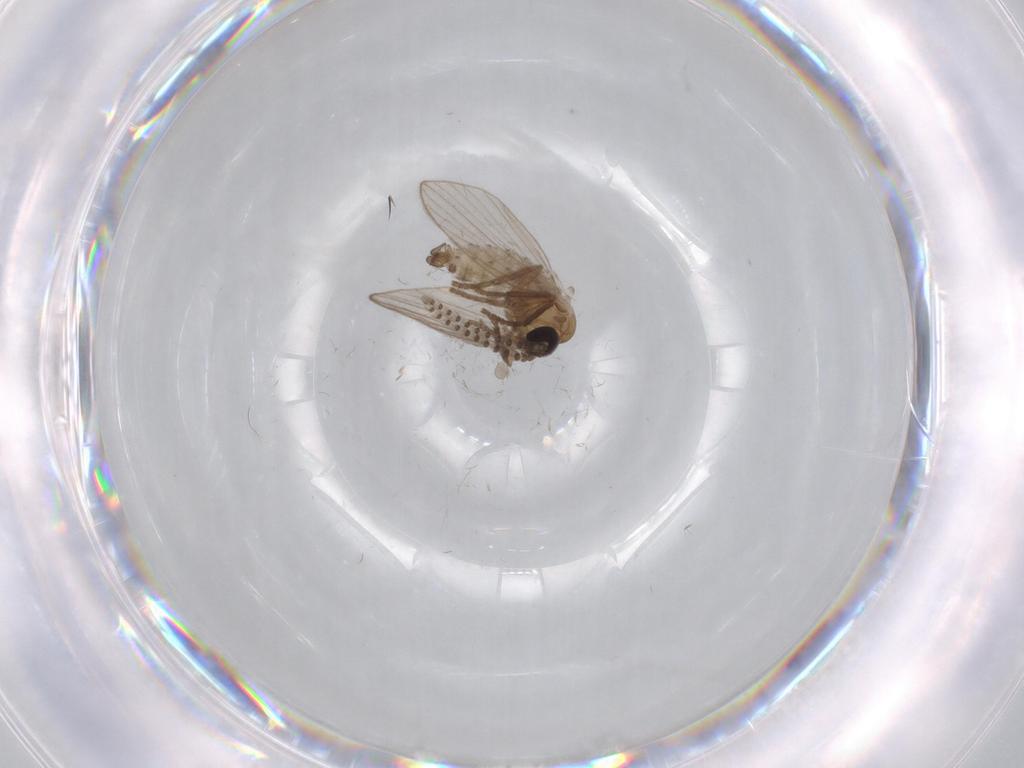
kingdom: Animalia
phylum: Arthropoda
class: Insecta
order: Diptera
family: Psychodidae
